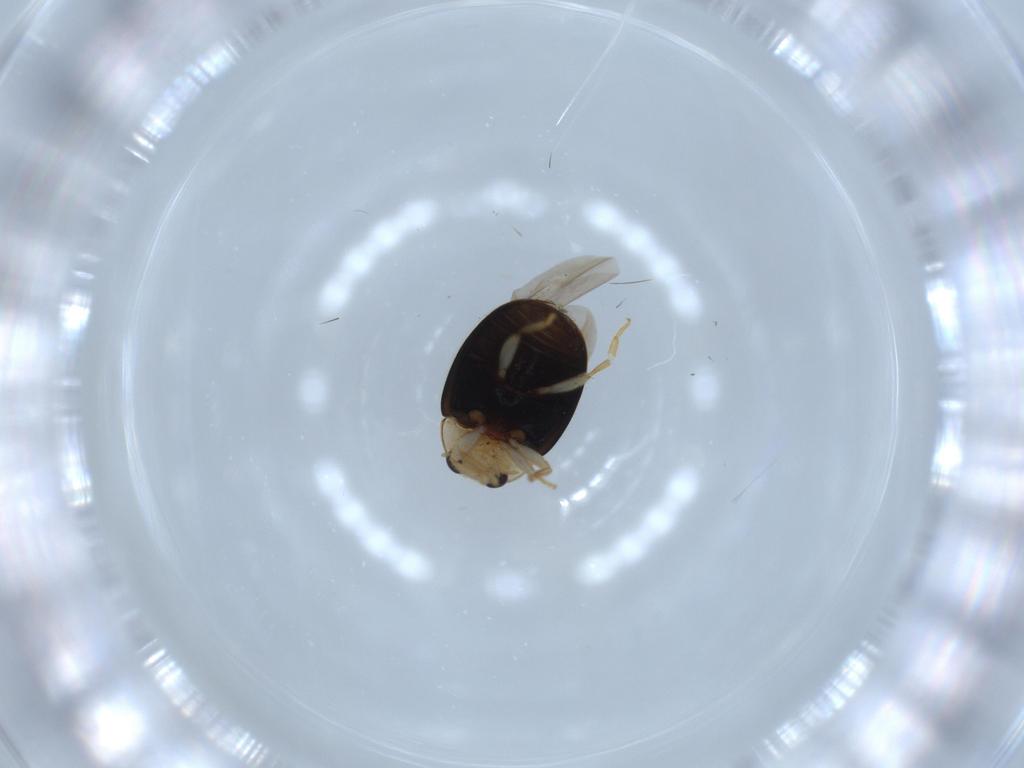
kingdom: Animalia
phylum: Arthropoda
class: Insecta
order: Coleoptera
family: Coccinellidae
